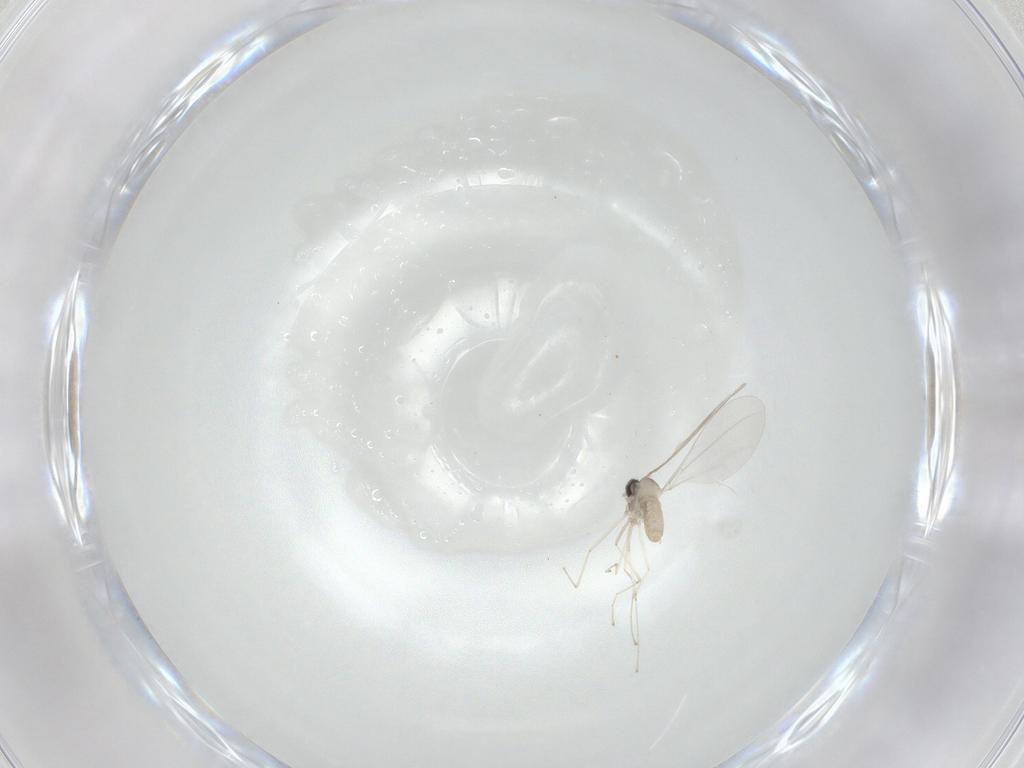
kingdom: Animalia
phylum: Arthropoda
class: Insecta
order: Diptera
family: Cecidomyiidae
